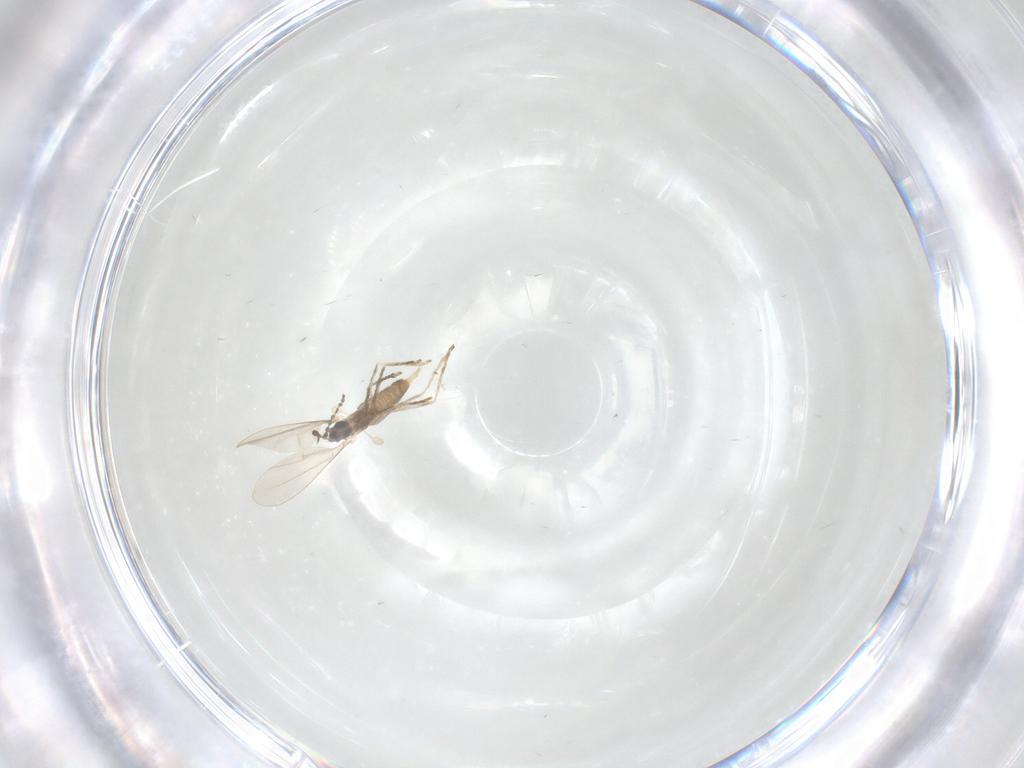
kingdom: Animalia
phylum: Arthropoda
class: Insecta
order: Diptera
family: Cecidomyiidae
